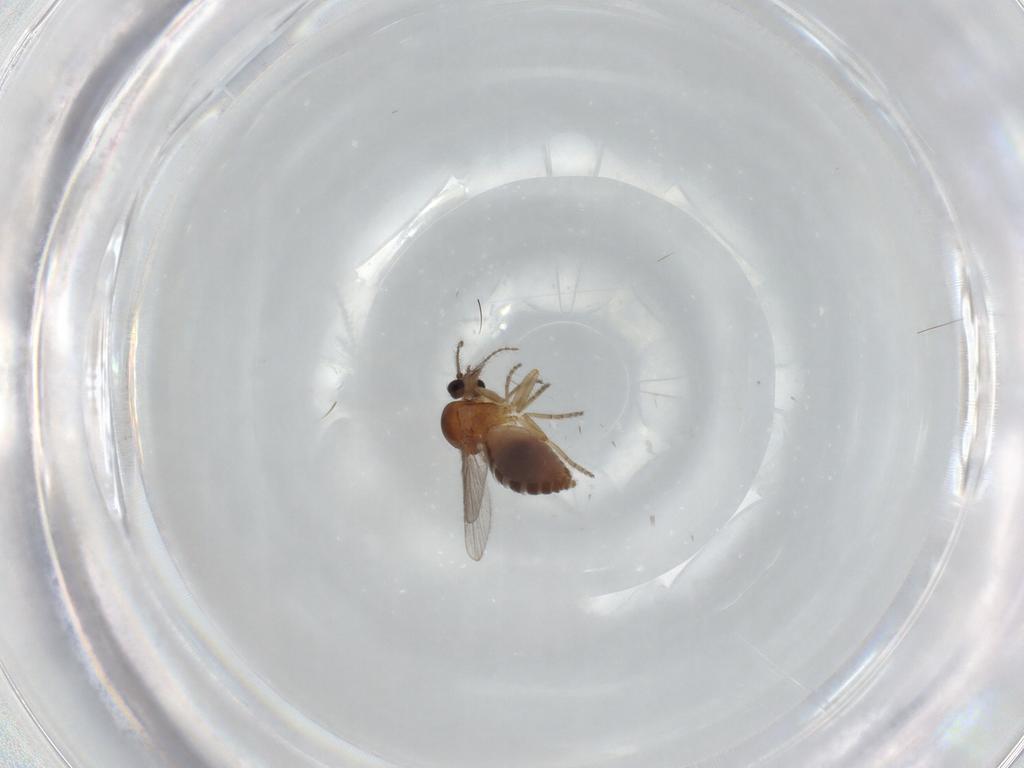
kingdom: Animalia
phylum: Arthropoda
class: Insecta
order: Diptera
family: Ceratopogonidae
